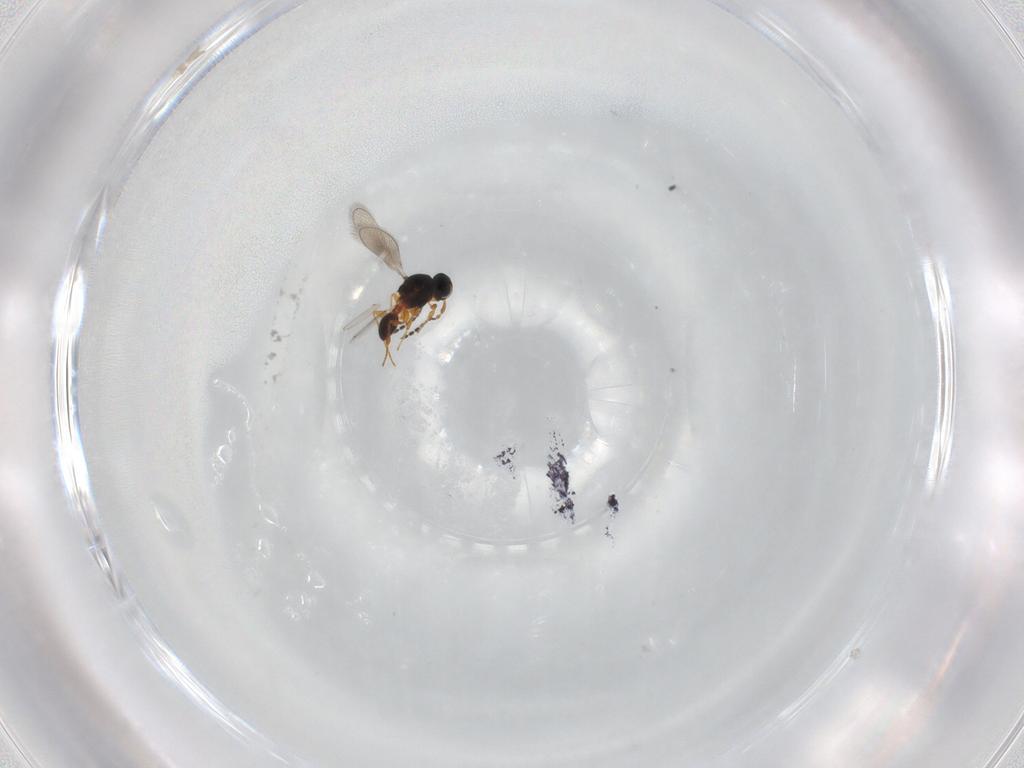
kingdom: Animalia
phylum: Arthropoda
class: Insecta
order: Hymenoptera
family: Platygastridae
